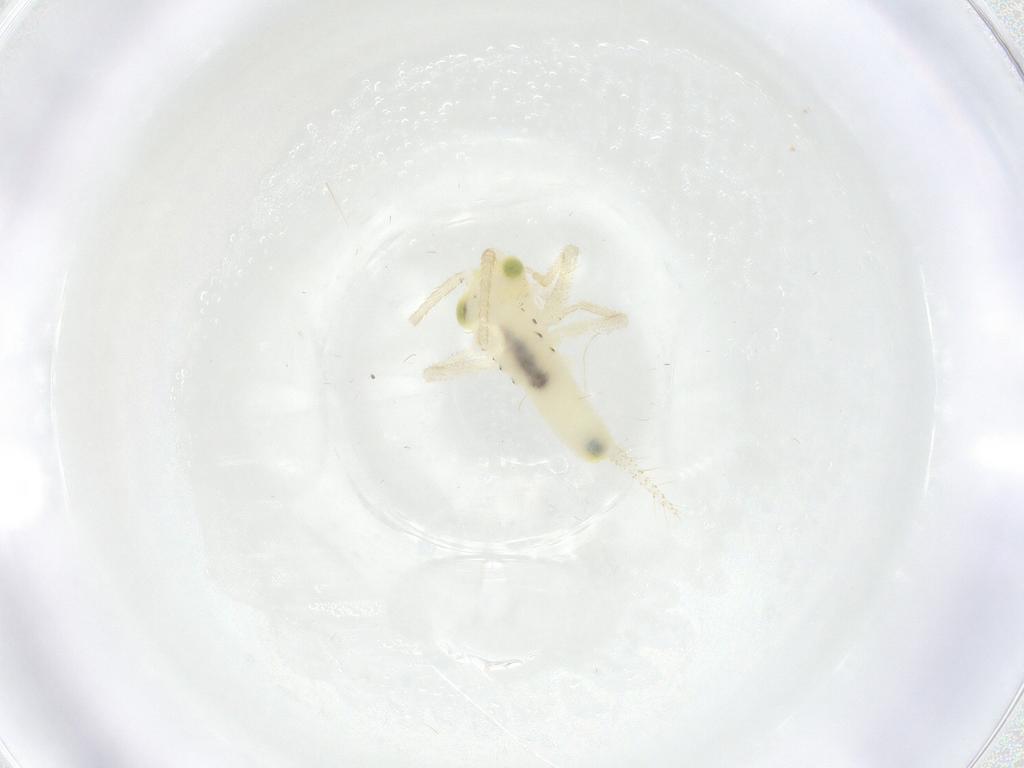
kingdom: Animalia
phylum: Arthropoda
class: Insecta
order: Orthoptera
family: Trigonidiidae
